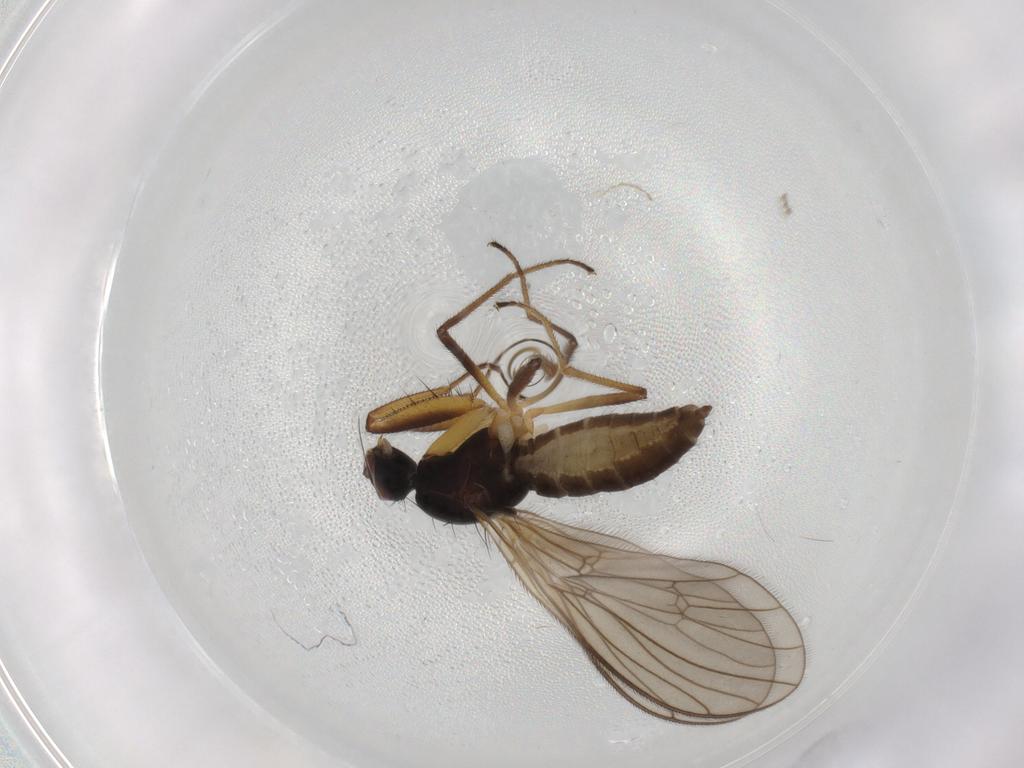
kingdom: Animalia
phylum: Arthropoda
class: Insecta
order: Diptera
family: Empididae
